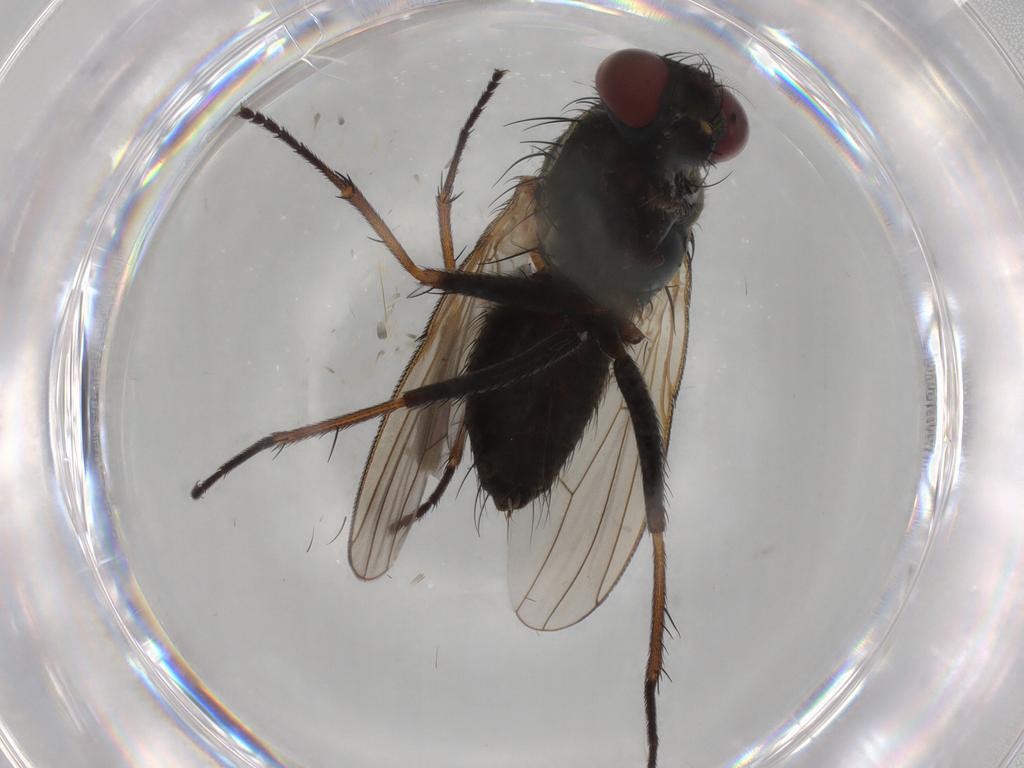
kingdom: Animalia
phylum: Arthropoda
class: Insecta
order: Diptera
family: Muscidae
